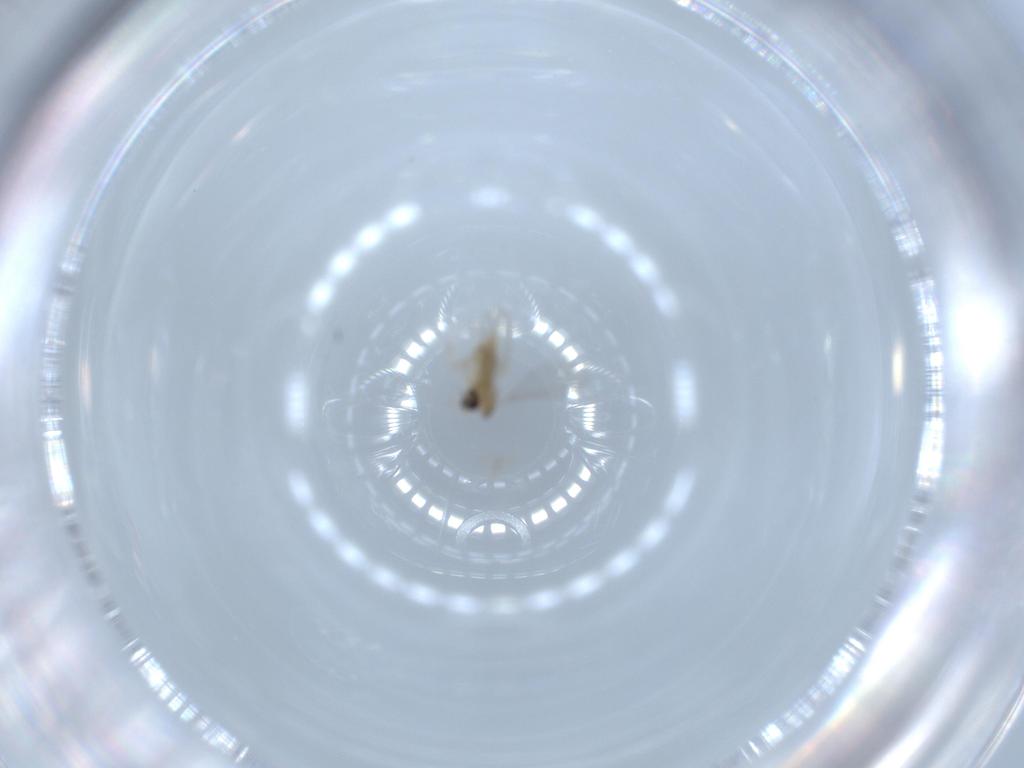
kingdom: Animalia
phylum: Arthropoda
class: Insecta
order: Diptera
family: Cecidomyiidae
